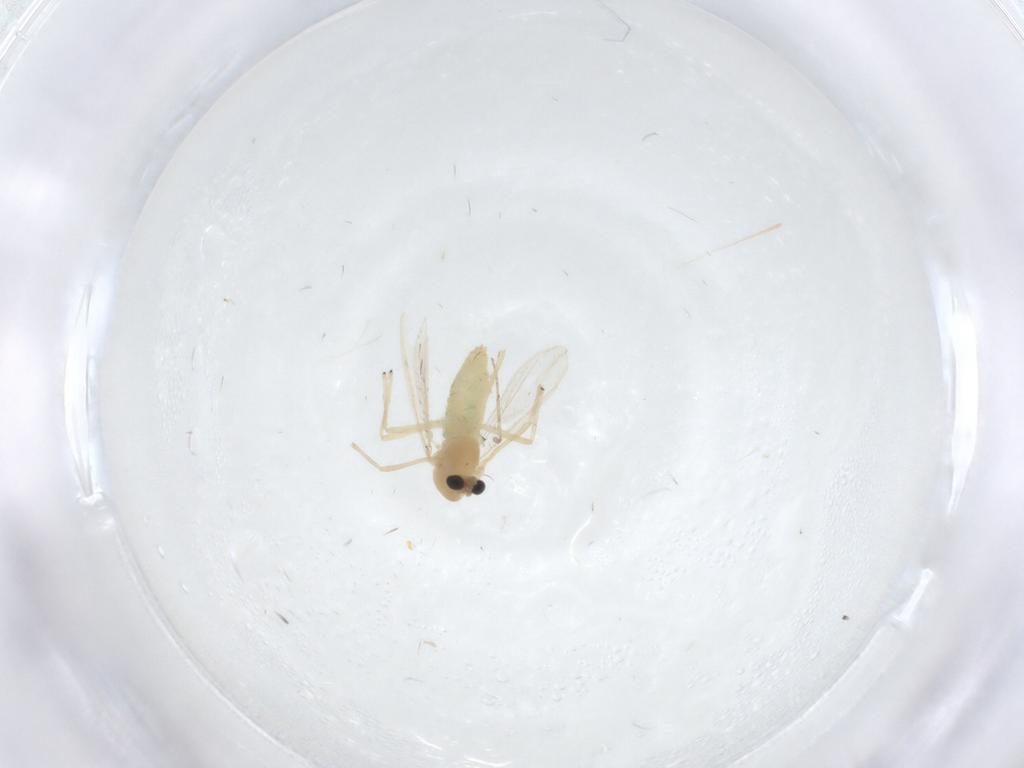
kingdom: Animalia
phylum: Arthropoda
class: Insecta
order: Diptera
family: Chironomidae
